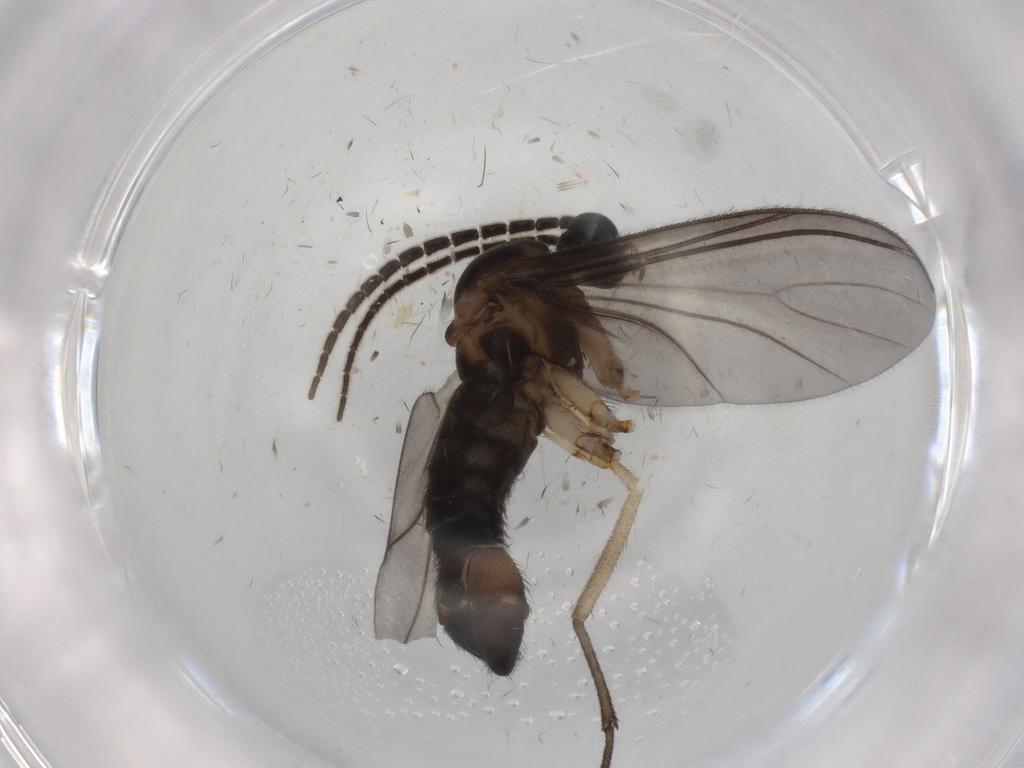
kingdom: Animalia
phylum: Arthropoda
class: Insecta
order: Diptera
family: Sciaridae
